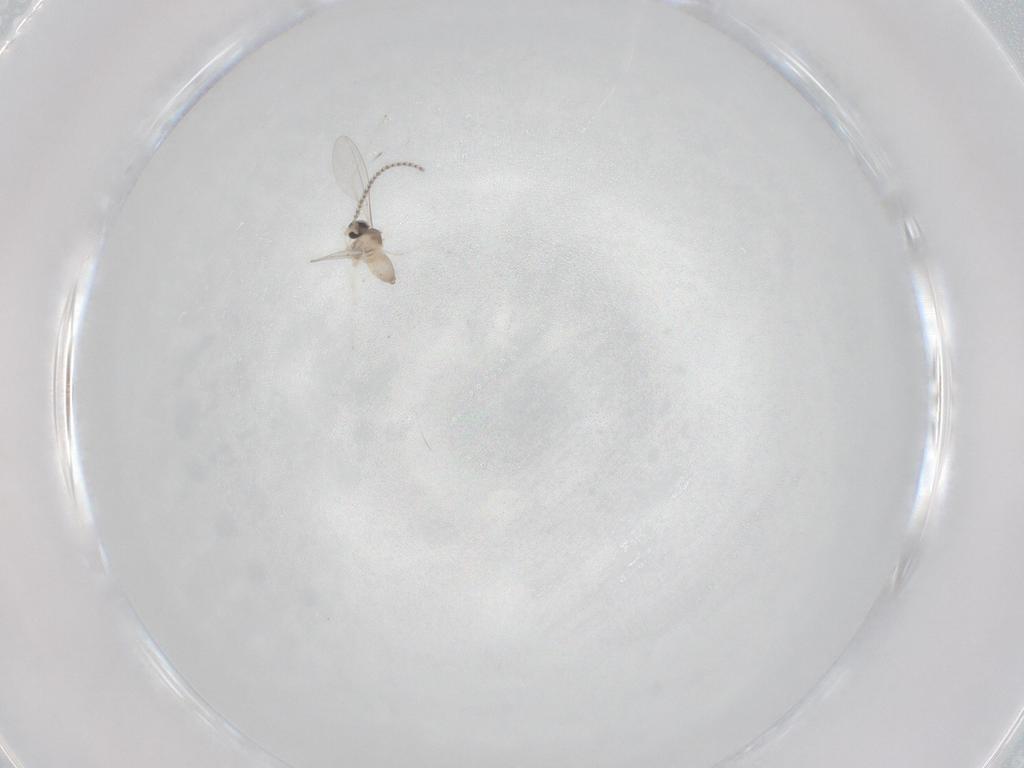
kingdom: Animalia
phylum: Arthropoda
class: Insecta
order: Diptera
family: Cecidomyiidae
